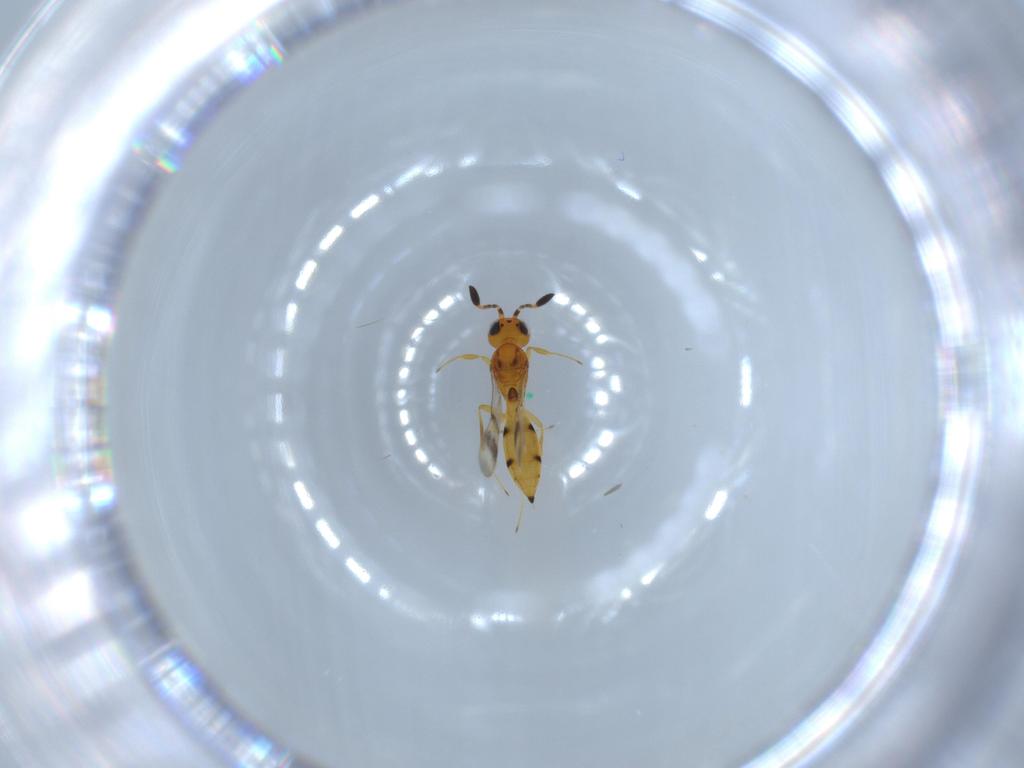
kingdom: Animalia
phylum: Arthropoda
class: Insecta
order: Hymenoptera
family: Scelionidae
